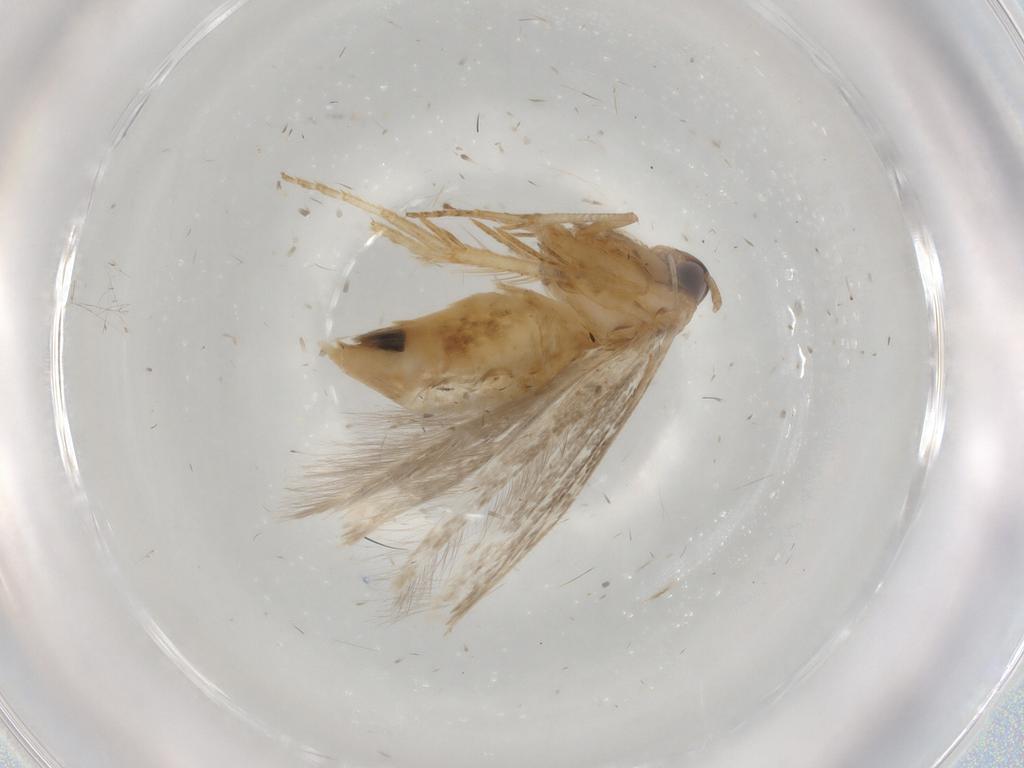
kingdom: Animalia
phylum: Arthropoda
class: Insecta
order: Lepidoptera
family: Cosmopterigidae
